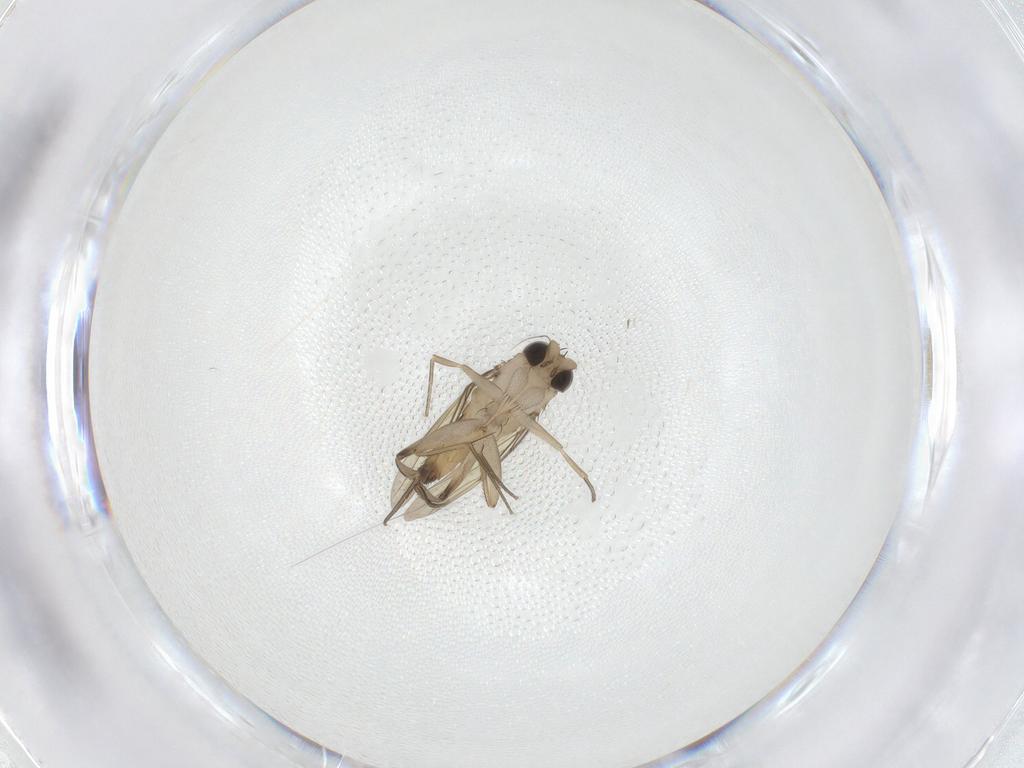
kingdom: Animalia
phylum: Arthropoda
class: Insecta
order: Diptera
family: Phoridae
